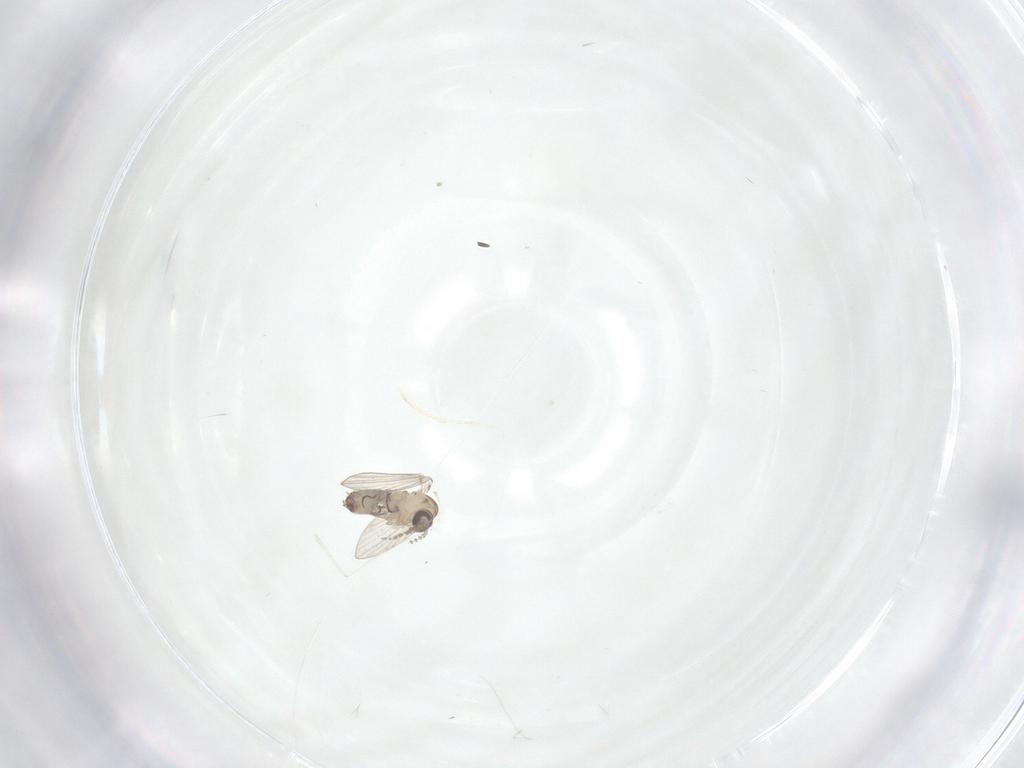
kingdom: Animalia
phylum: Arthropoda
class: Insecta
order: Diptera
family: Psychodidae
